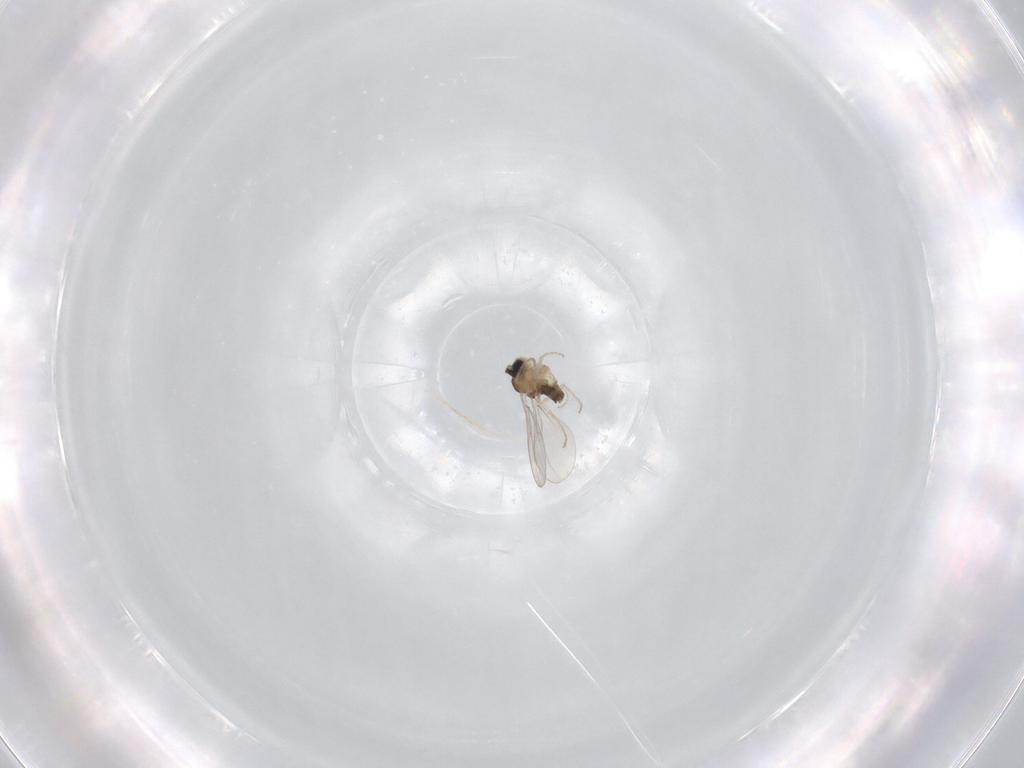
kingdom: Animalia
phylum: Arthropoda
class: Insecta
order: Diptera
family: Cecidomyiidae
